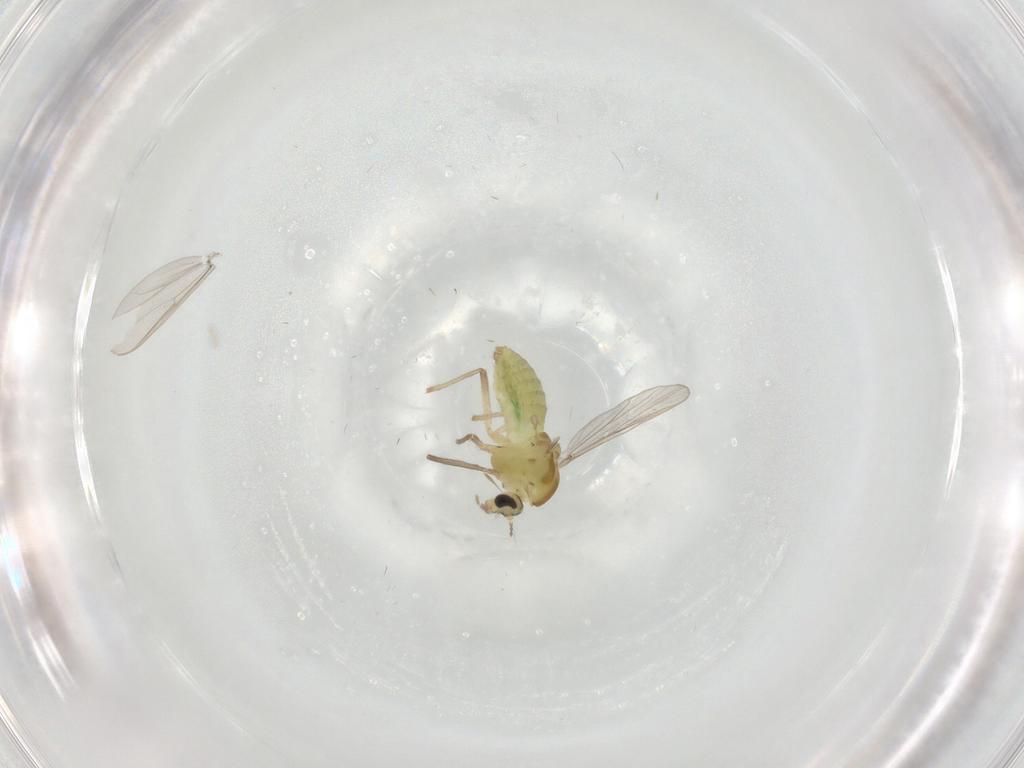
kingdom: Animalia
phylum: Arthropoda
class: Insecta
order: Diptera
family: Chironomidae
